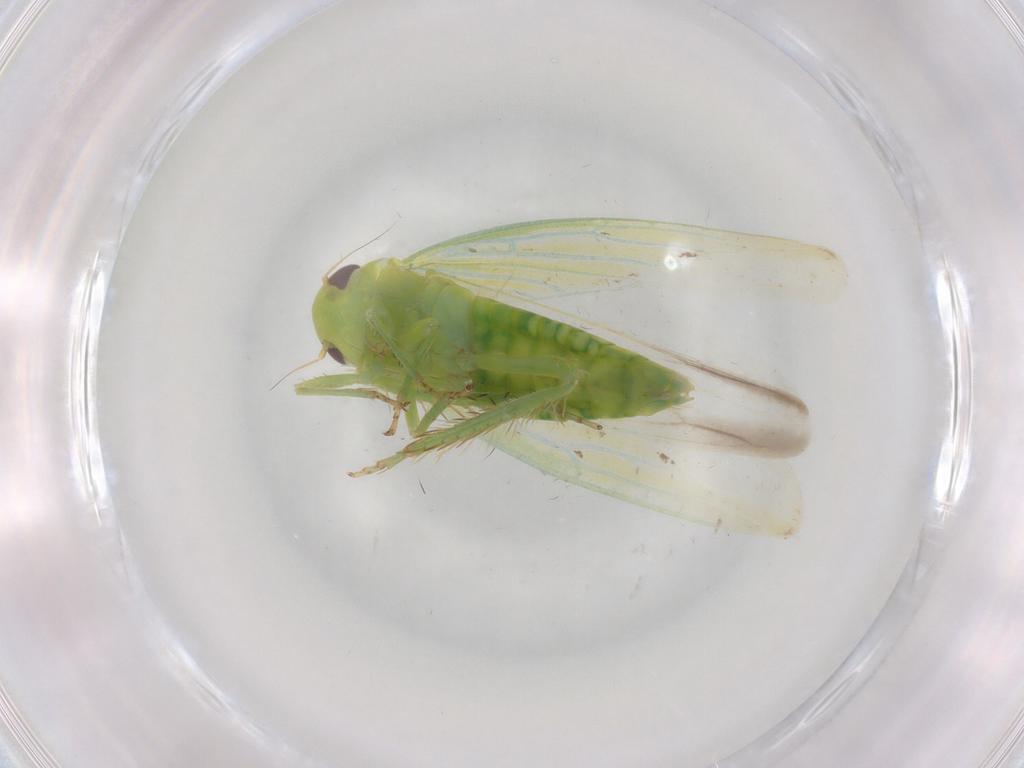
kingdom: Animalia
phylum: Arthropoda
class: Insecta
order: Hemiptera
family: Cicadellidae
